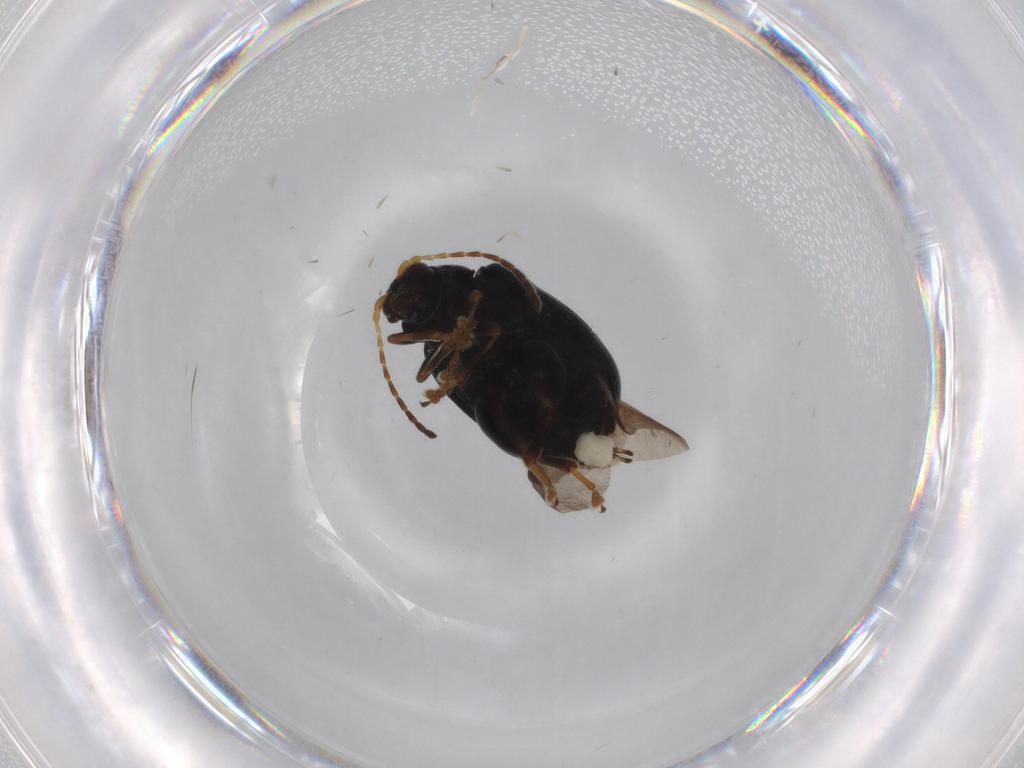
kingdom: Animalia
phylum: Arthropoda
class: Insecta
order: Coleoptera
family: Chrysomelidae
